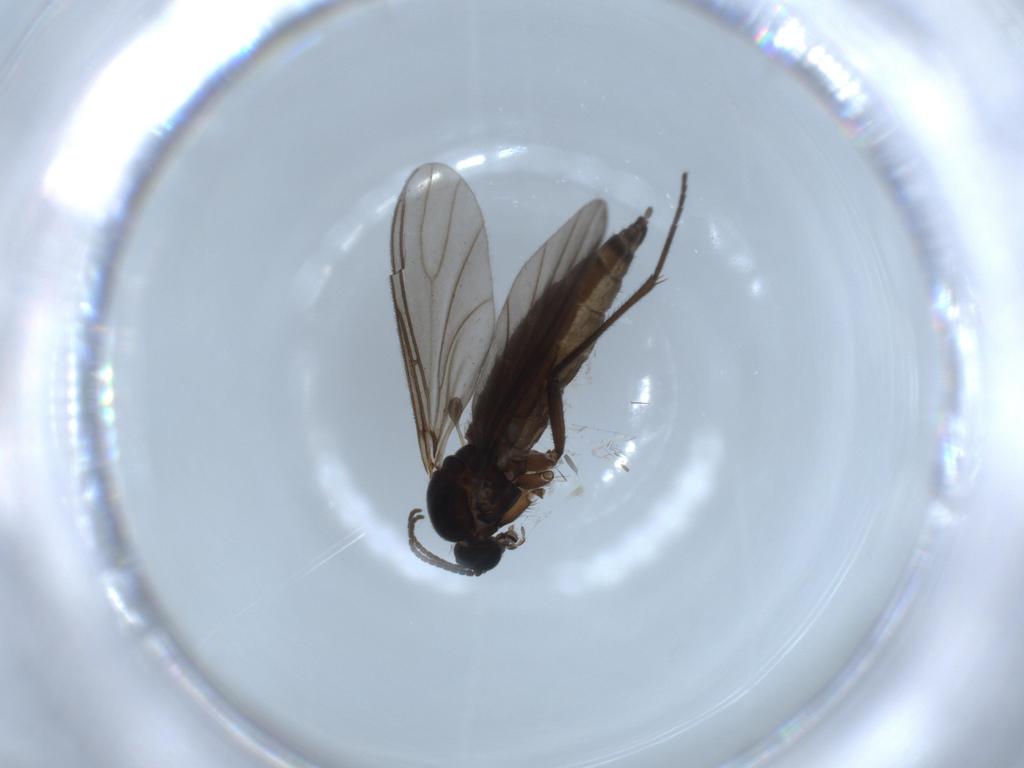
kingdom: Animalia
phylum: Arthropoda
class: Insecta
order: Diptera
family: Sciaridae
